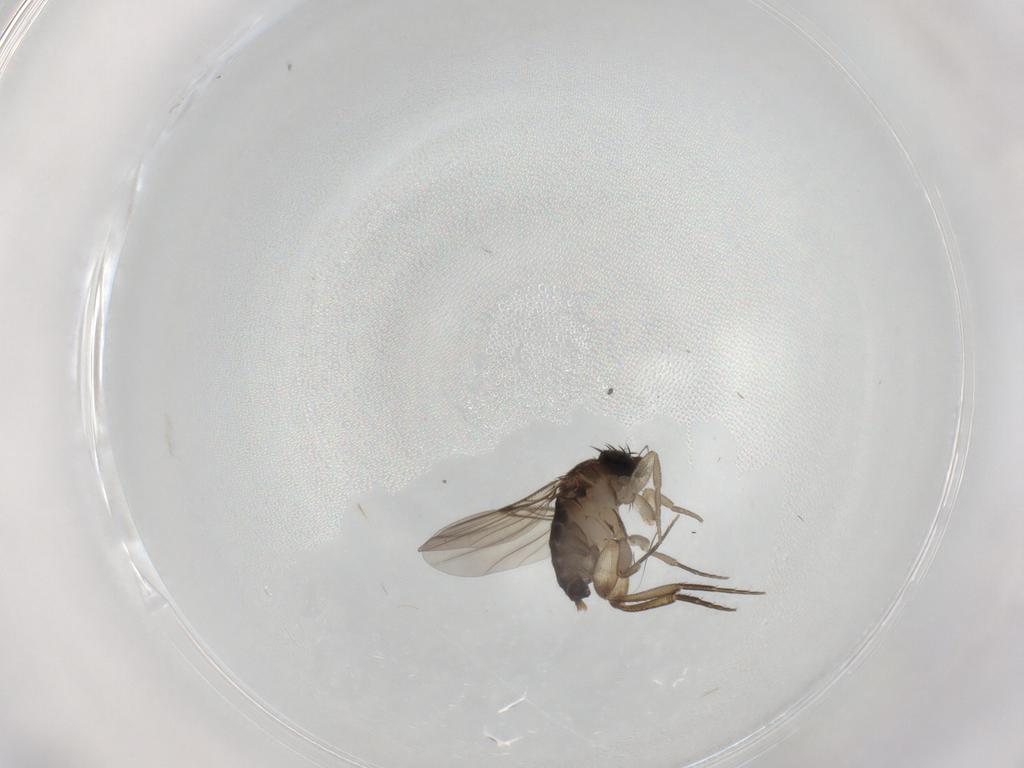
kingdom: Animalia
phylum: Arthropoda
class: Insecta
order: Diptera
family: Phoridae
